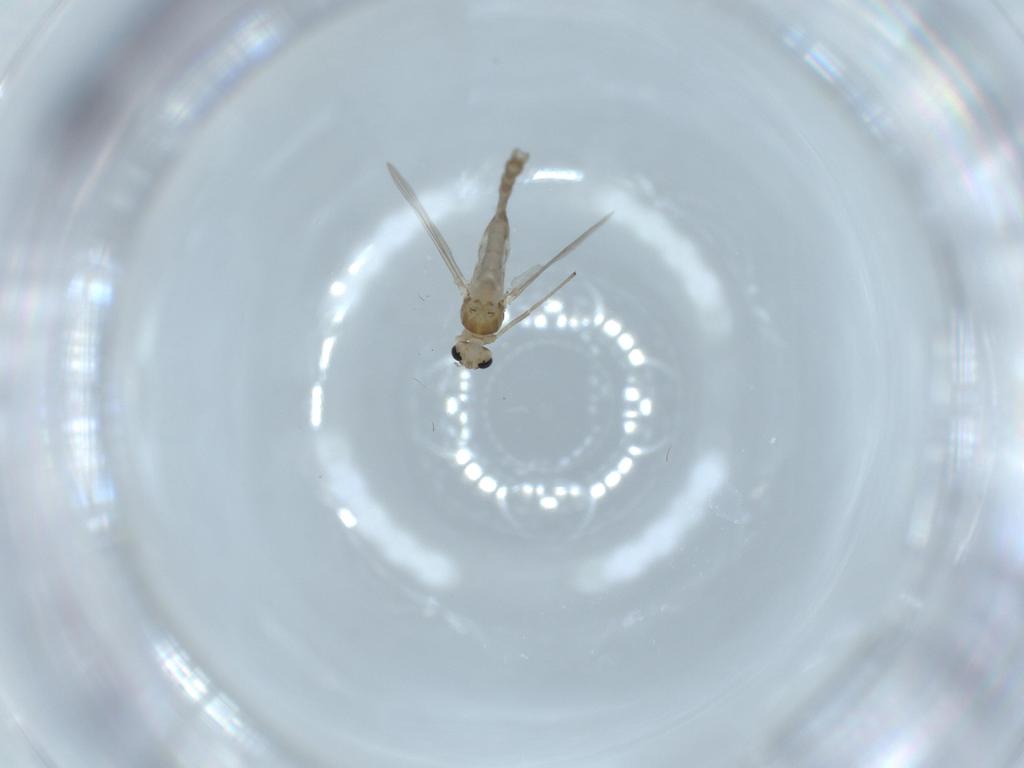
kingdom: Animalia
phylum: Arthropoda
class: Insecta
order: Diptera
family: Chironomidae
